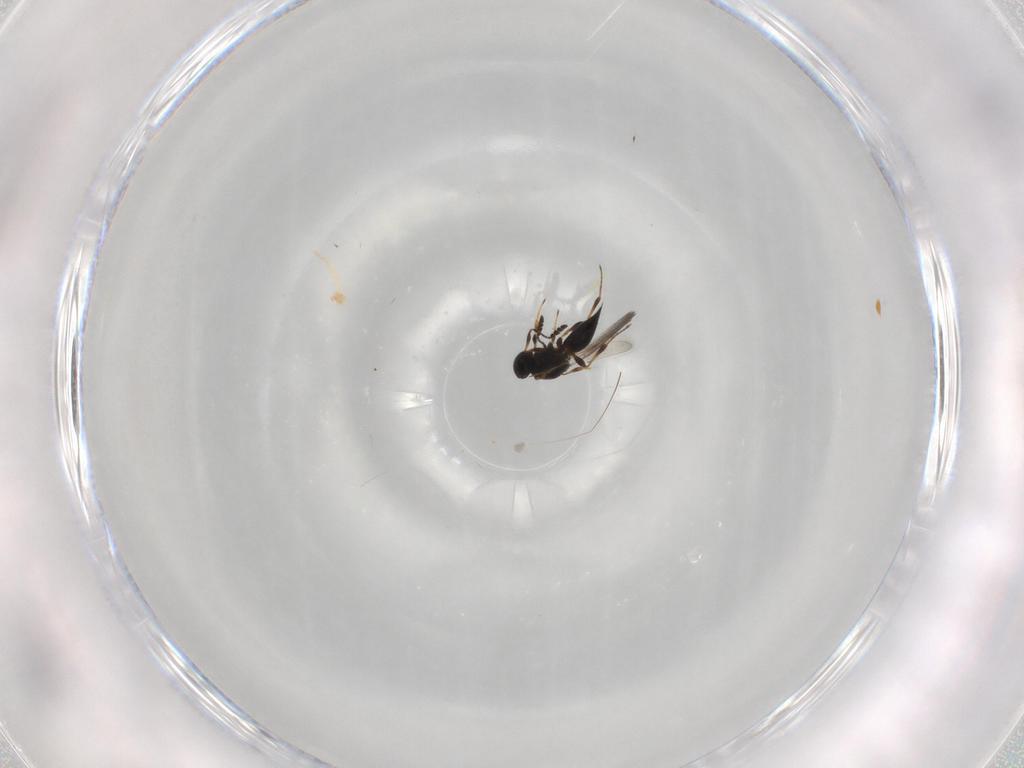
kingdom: Animalia
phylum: Arthropoda
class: Insecta
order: Hymenoptera
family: Platygastridae
